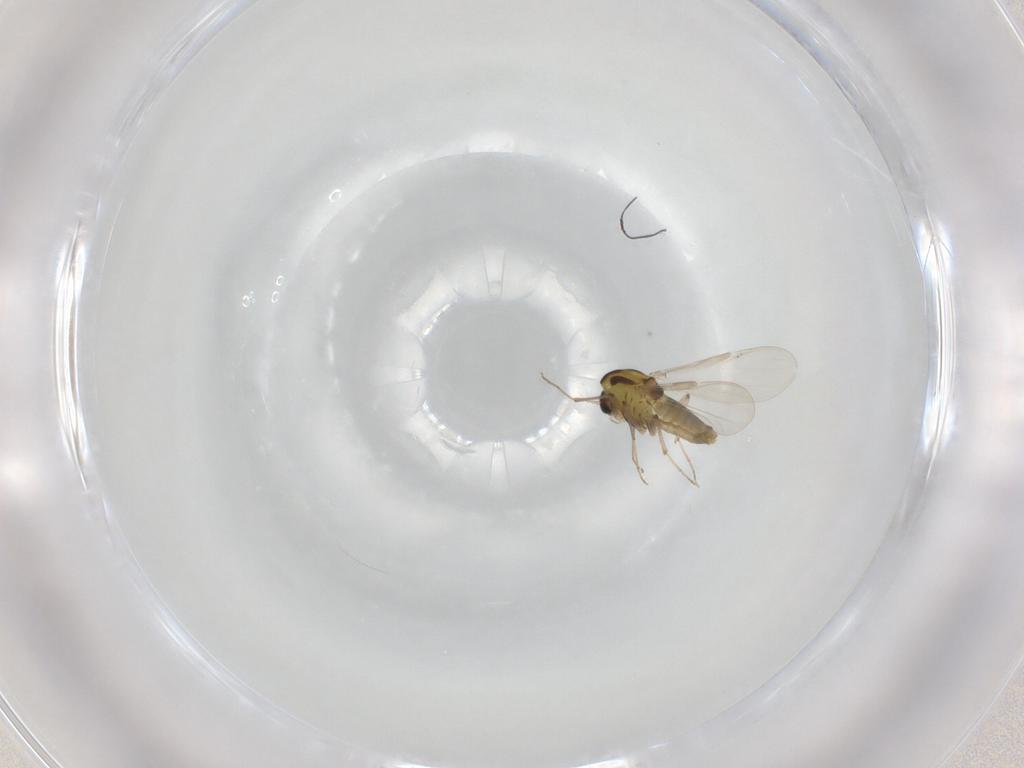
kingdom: Animalia
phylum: Arthropoda
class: Insecta
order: Diptera
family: Chironomidae
